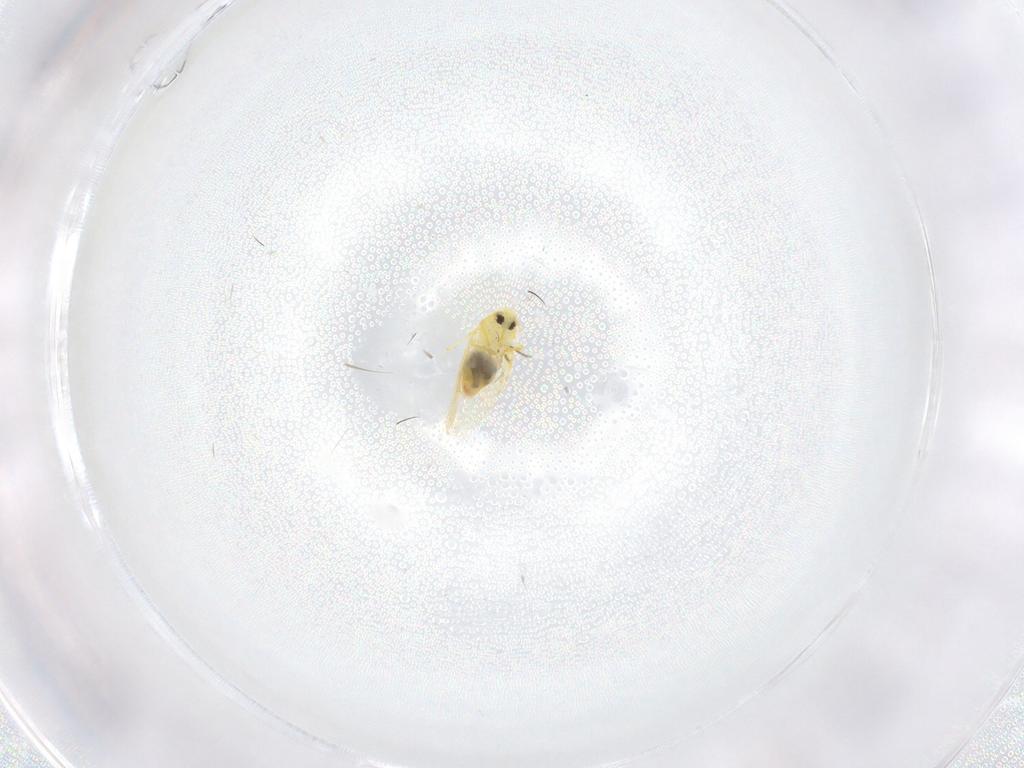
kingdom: Animalia
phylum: Arthropoda
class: Insecta
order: Hemiptera
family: Aleyrodidae
